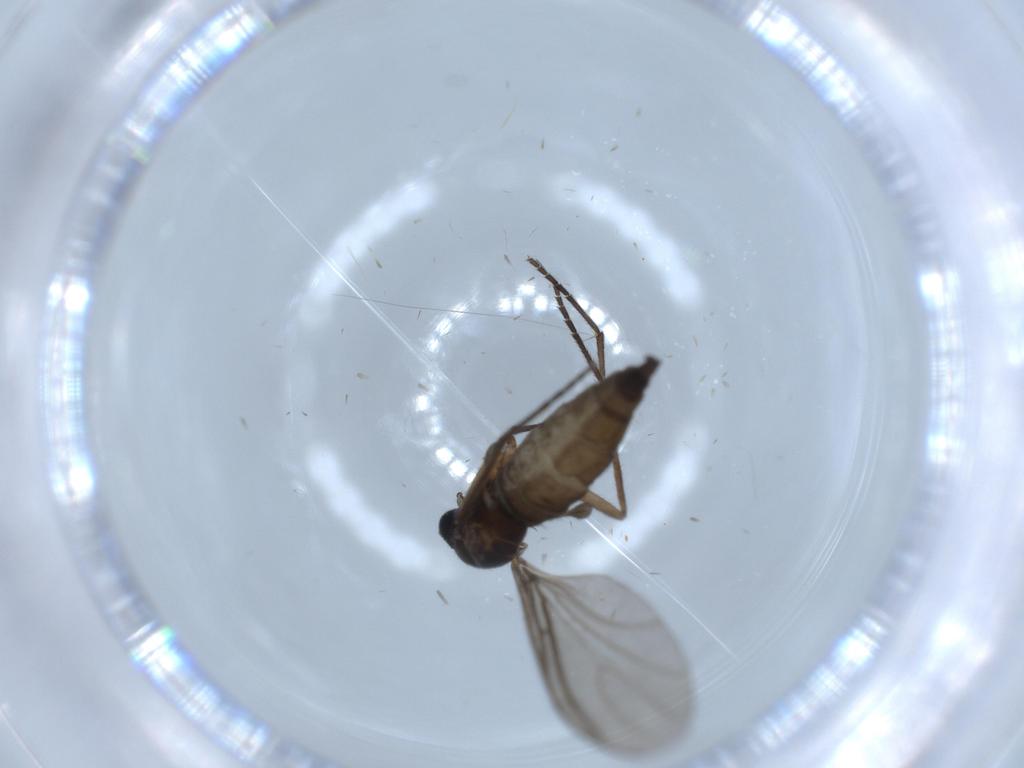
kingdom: Animalia
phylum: Arthropoda
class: Insecta
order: Diptera
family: Sciaridae
